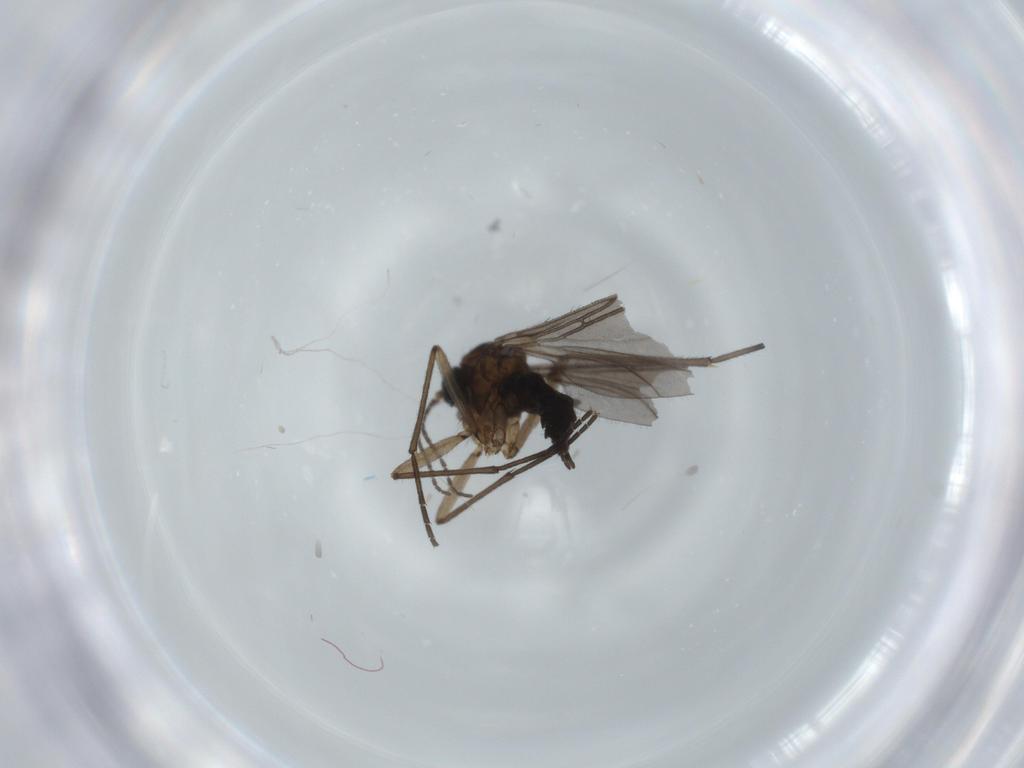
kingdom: Animalia
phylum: Arthropoda
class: Insecta
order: Diptera
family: Sciaridae
